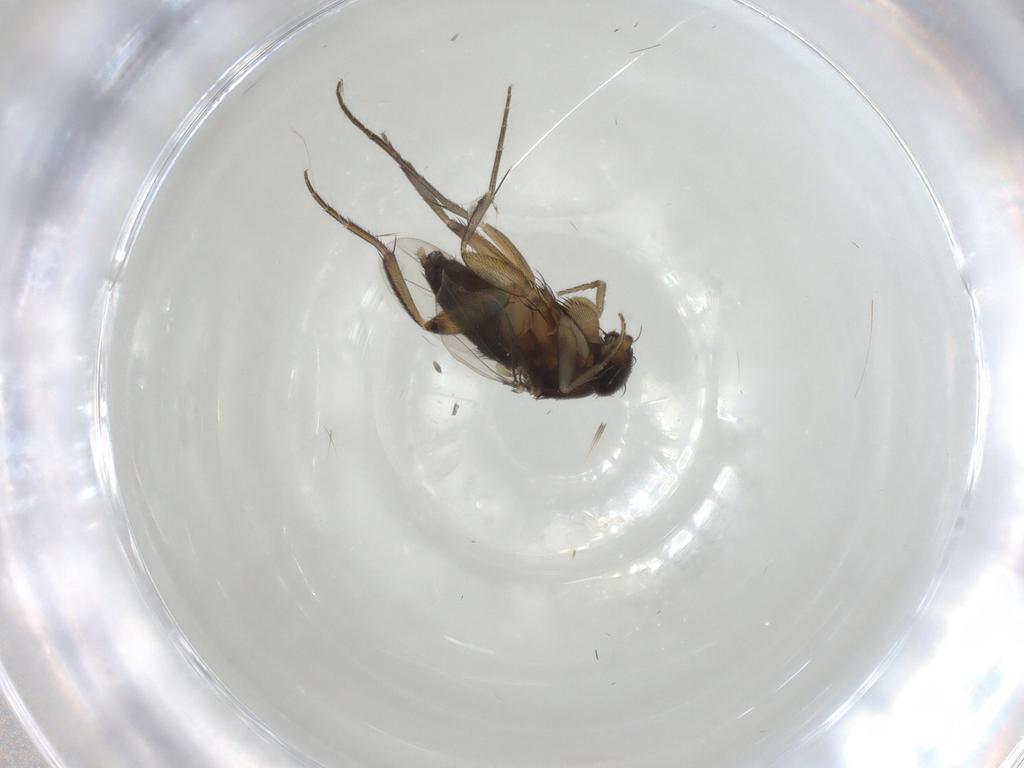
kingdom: Animalia
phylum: Arthropoda
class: Insecta
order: Diptera
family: Phoridae
